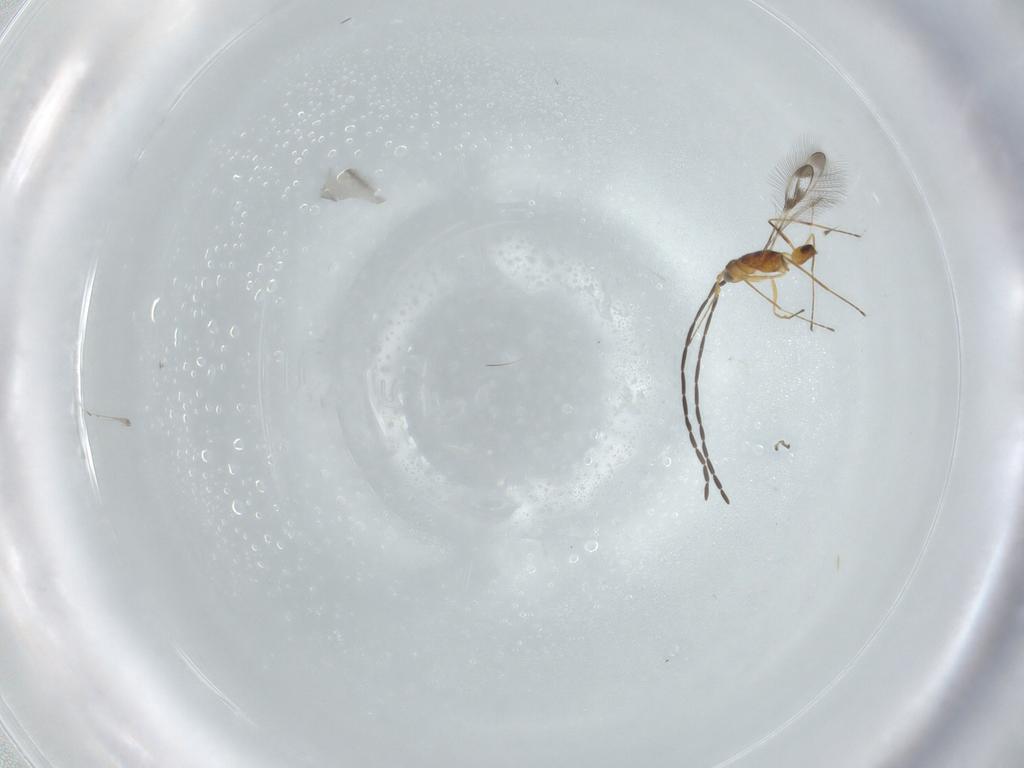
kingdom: Animalia
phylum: Arthropoda
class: Insecta
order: Hymenoptera
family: Mymaridae
